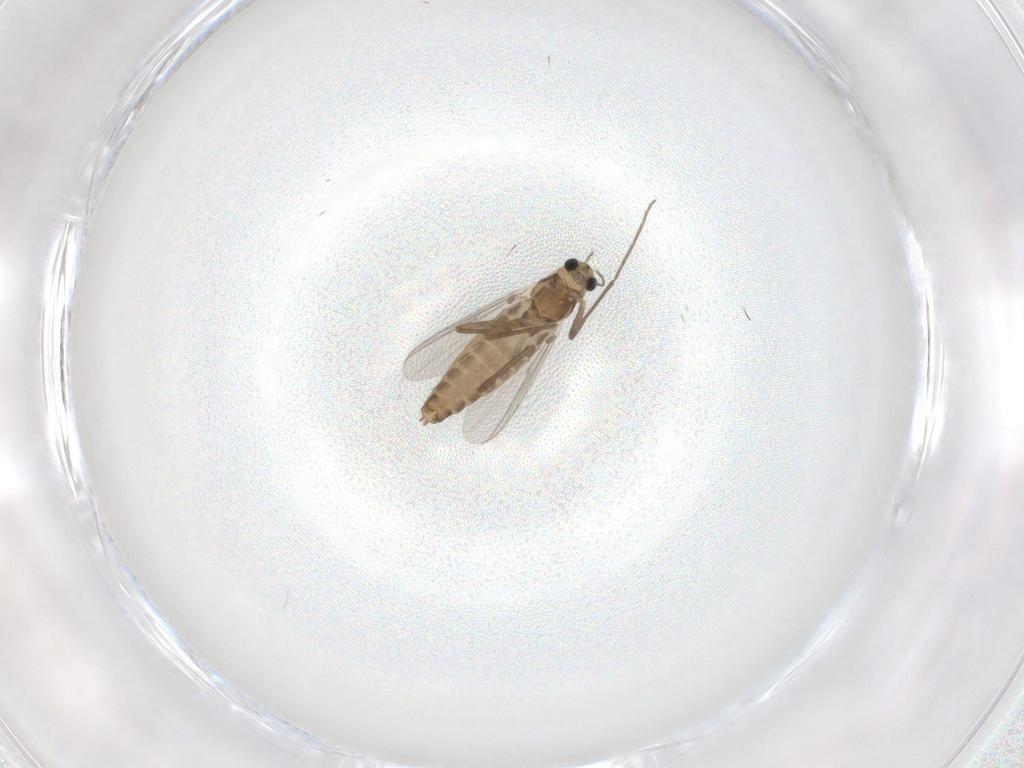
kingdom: Animalia
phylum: Arthropoda
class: Insecta
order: Diptera
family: Chironomidae
